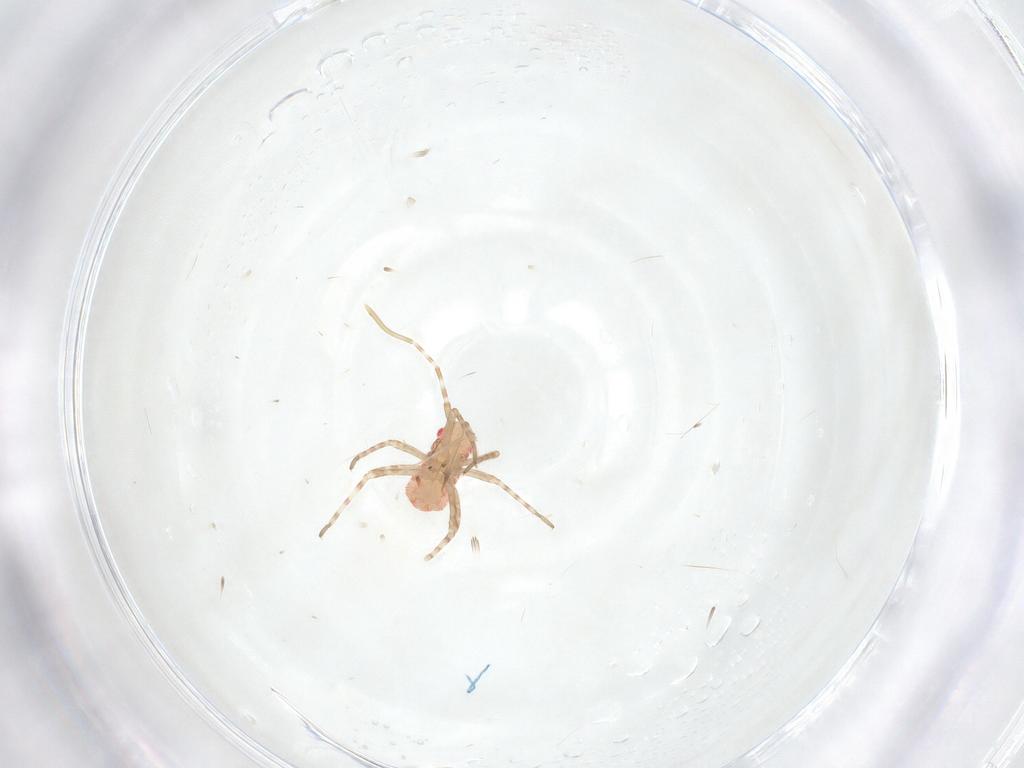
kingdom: Animalia
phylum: Arthropoda
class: Insecta
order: Hemiptera
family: Miridae
